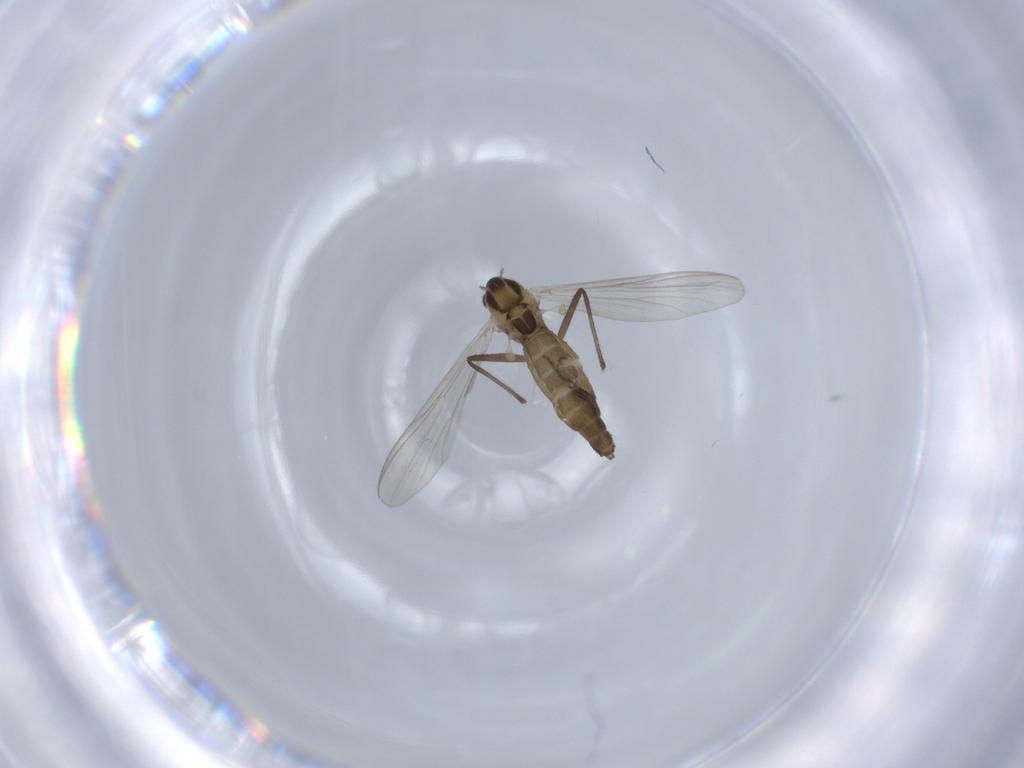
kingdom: Animalia
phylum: Arthropoda
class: Insecta
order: Diptera
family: Chironomidae
